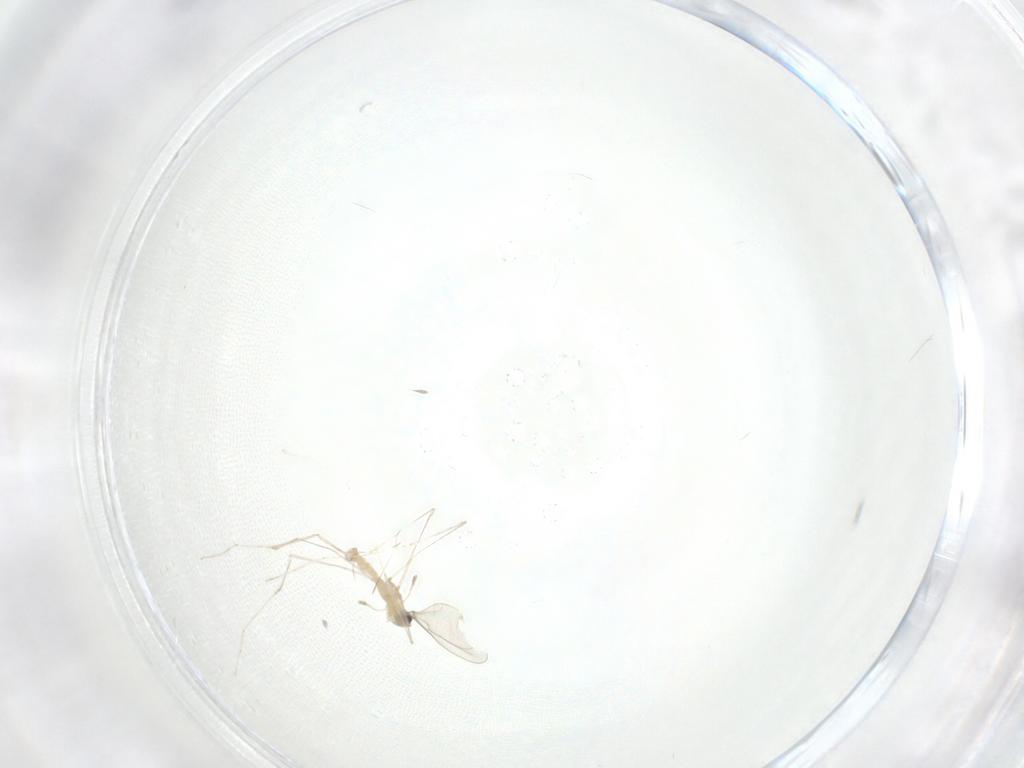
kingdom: Animalia
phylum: Arthropoda
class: Insecta
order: Diptera
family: Cecidomyiidae
